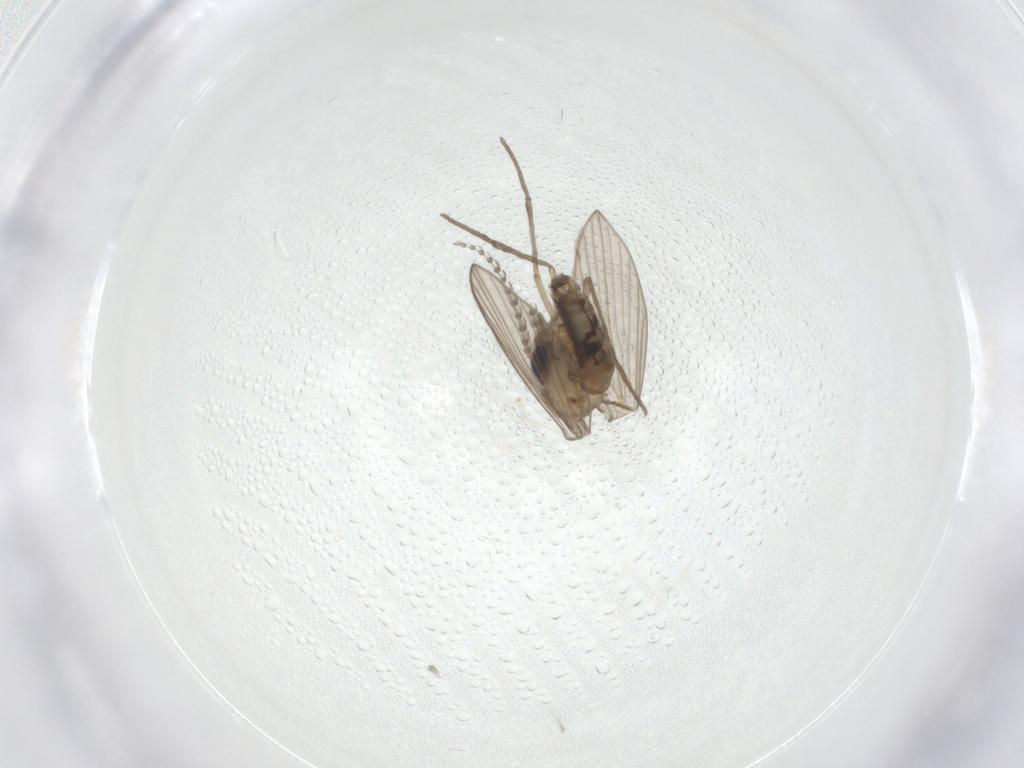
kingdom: Animalia
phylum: Arthropoda
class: Insecta
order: Diptera
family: Psychodidae
